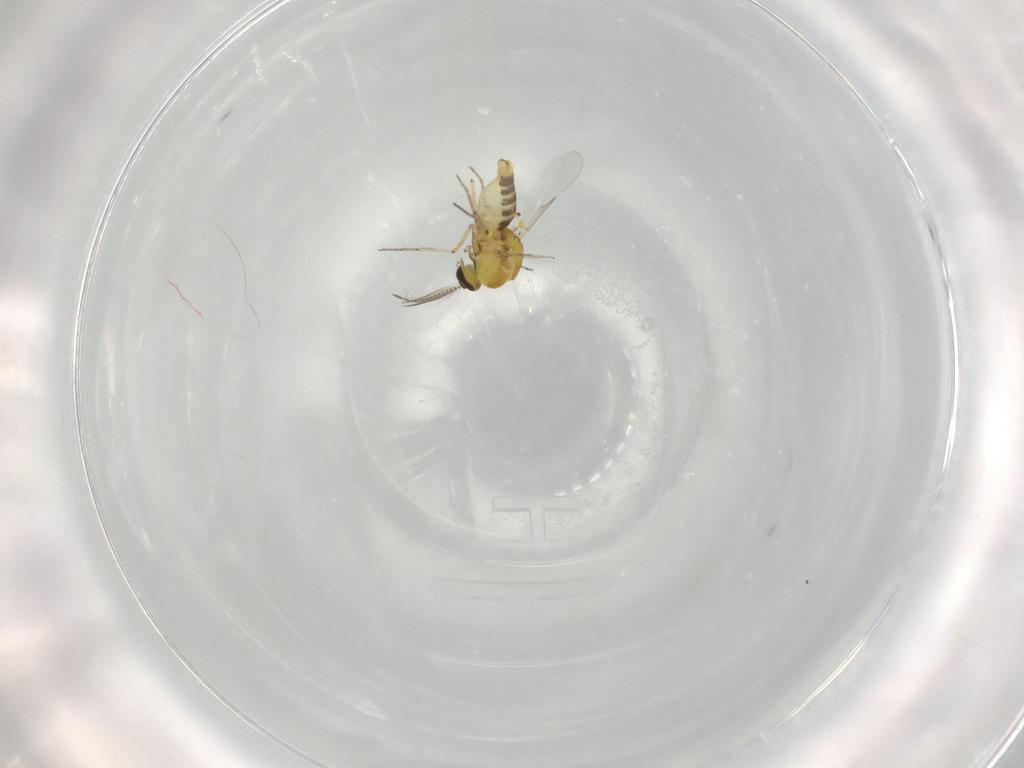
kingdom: Animalia
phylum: Arthropoda
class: Insecta
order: Diptera
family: Ceratopogonidae
